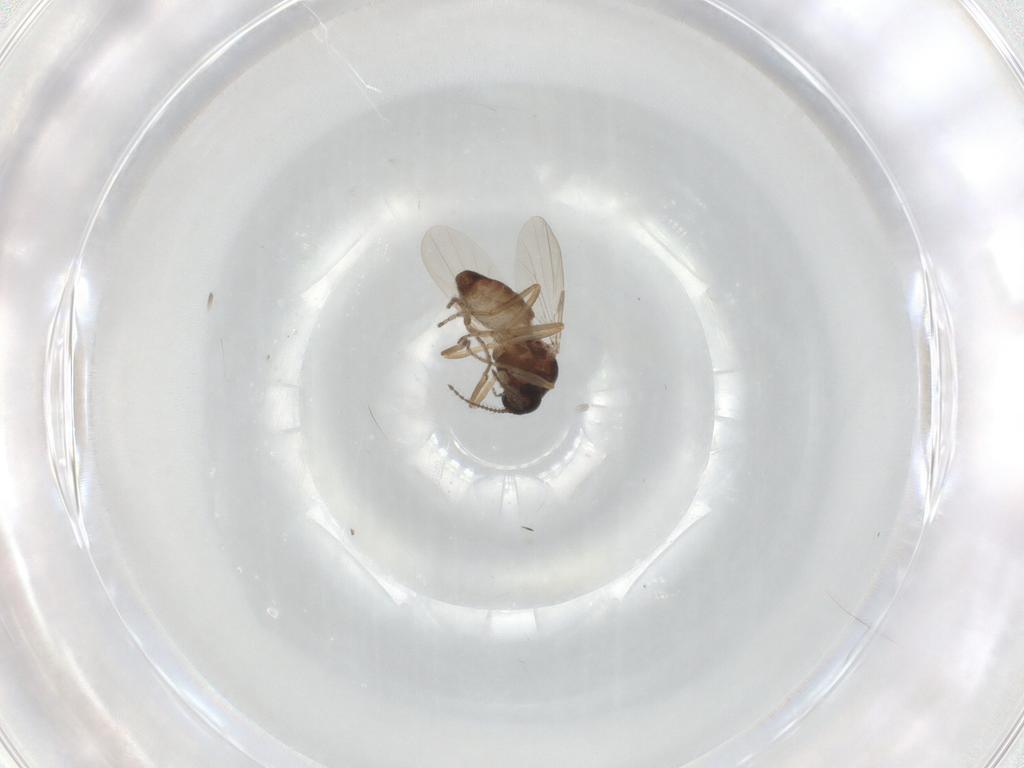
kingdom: Animalia
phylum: Arthropoda
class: Insecta
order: Diptera
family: Ceratopogonidae
